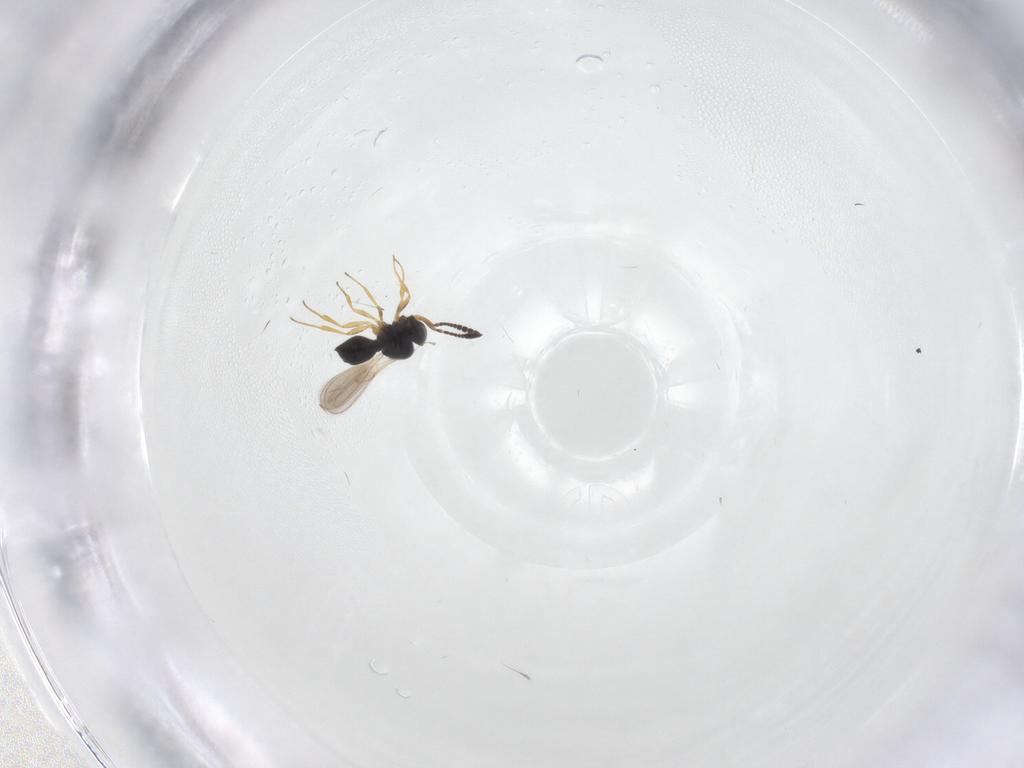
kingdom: Animalia
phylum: Arthropoda
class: Insecta
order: Hymenoptera
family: Scelionidae
